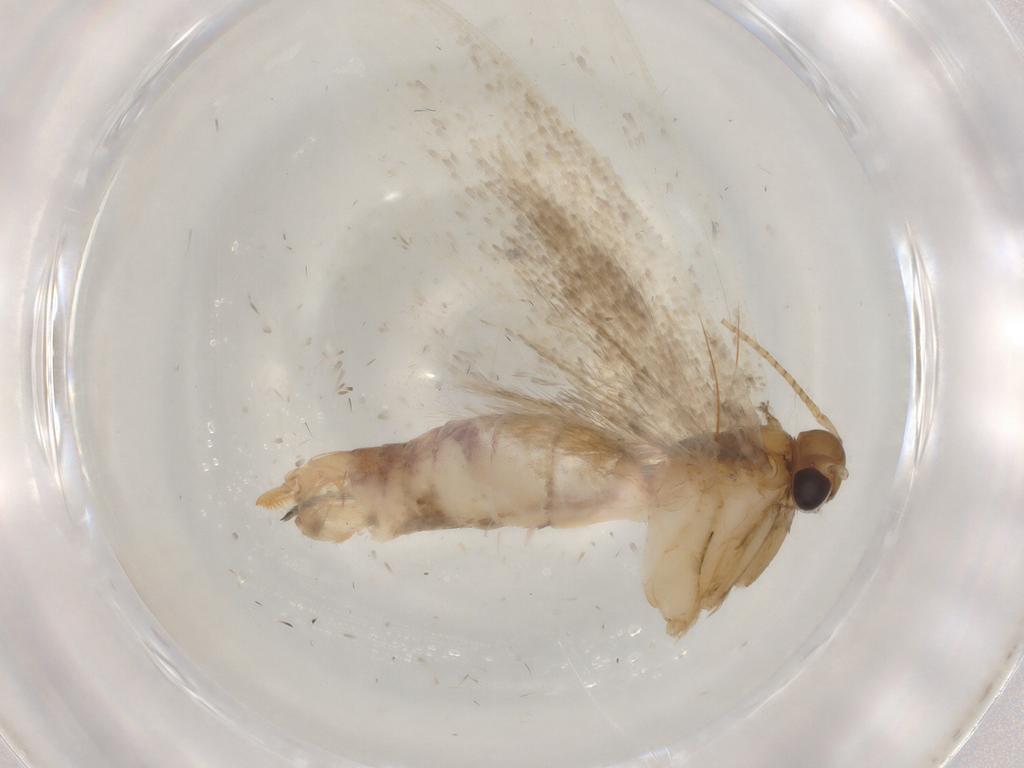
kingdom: Animalia
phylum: Arthropoda
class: Insecta
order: Lepidoptera
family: Gelechiidae
